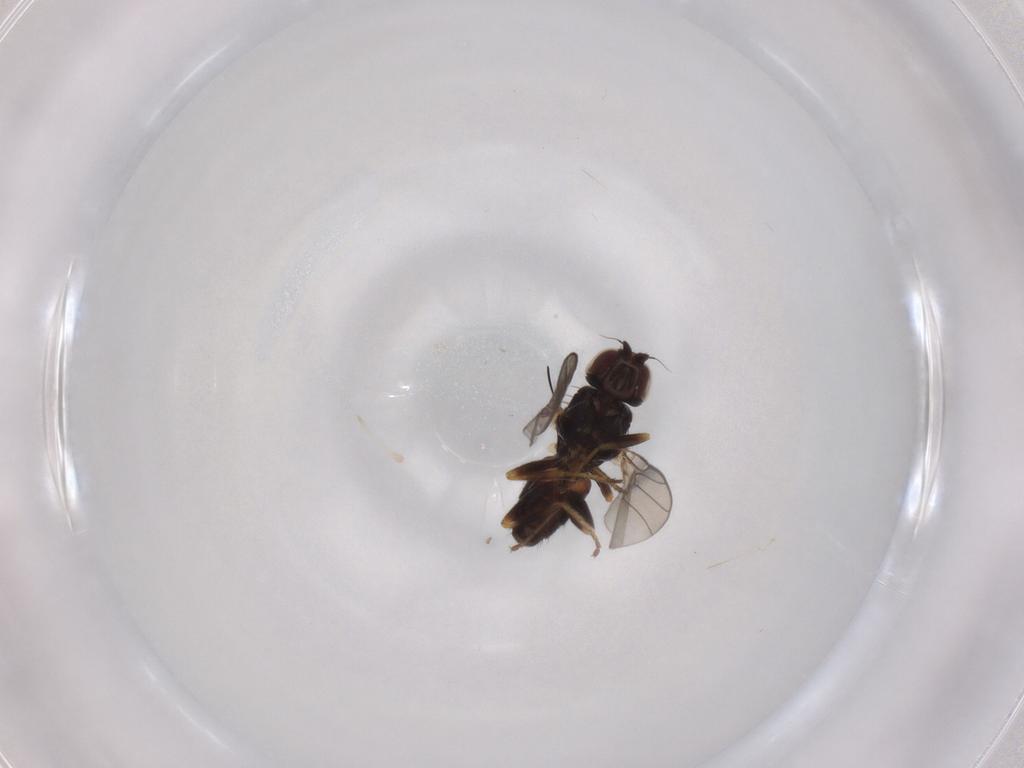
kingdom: Animalia
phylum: Arthropoda
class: Insecta
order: Diptera
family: Chloropidae
